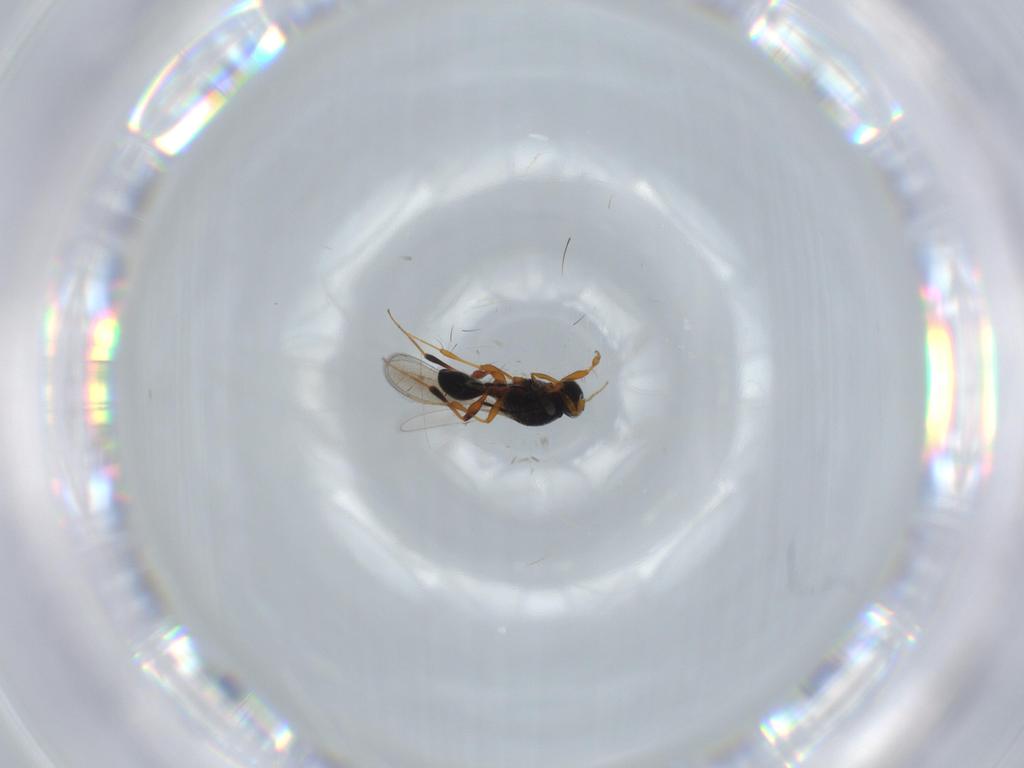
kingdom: Animalia
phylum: Arthropoda
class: Insecta
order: Hymenoptera
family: Platygastridae
